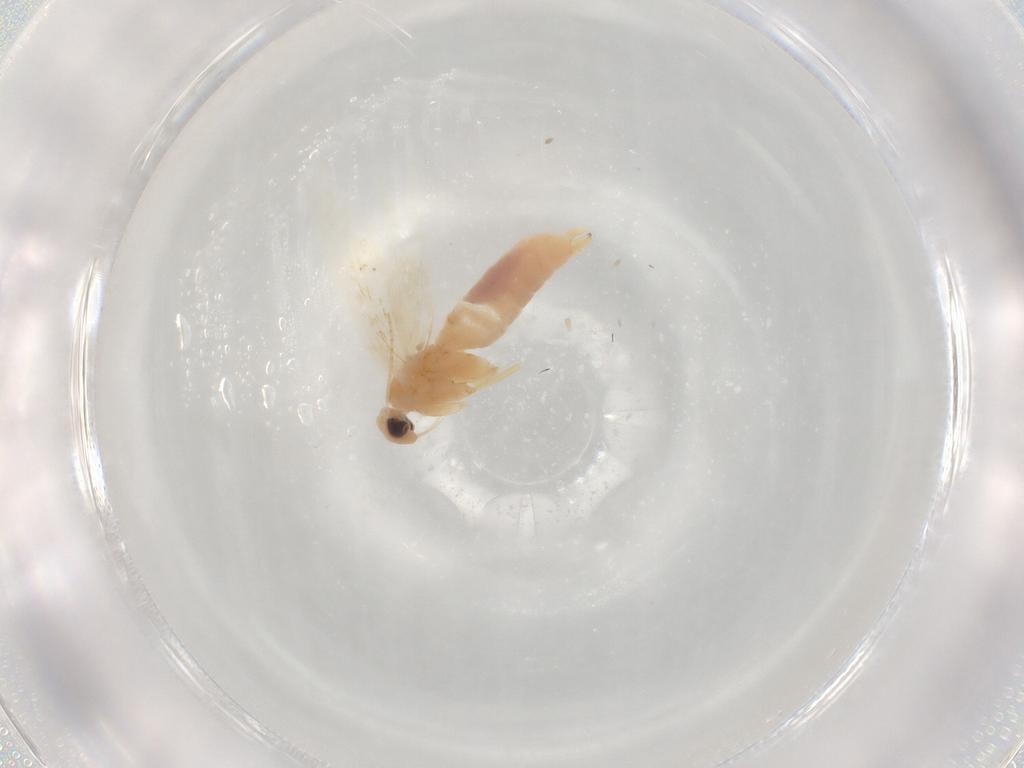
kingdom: Animalia
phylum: Arthropoda
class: Insecta
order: Lepidoptera
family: Bucculatricidae
